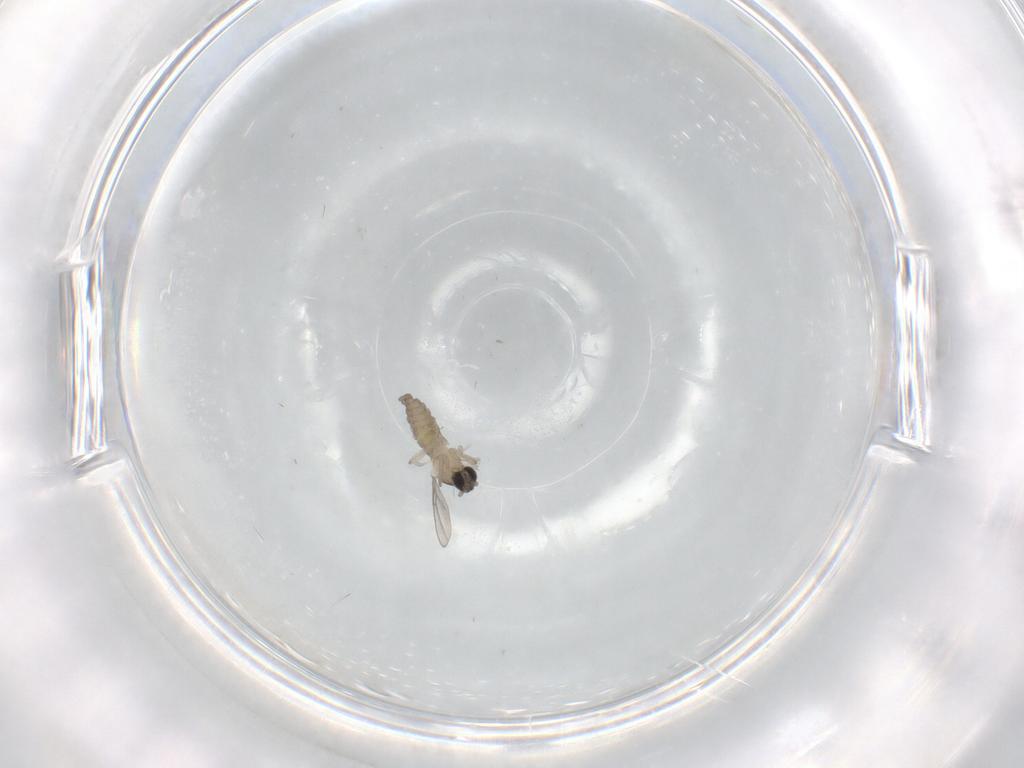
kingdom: Animalia
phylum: Arthropoda
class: Insecta
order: Diptera
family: Cecidomyiidae
